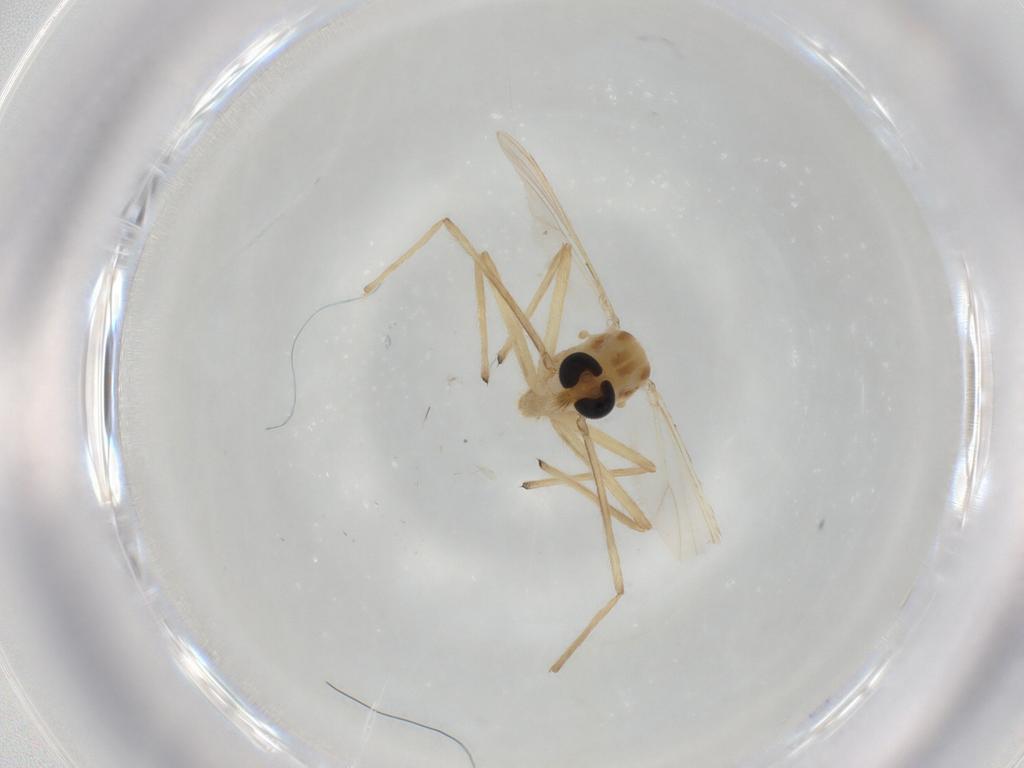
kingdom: Animalia
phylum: Arthropoda
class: Insecta
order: Diptera
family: Chironomidae
